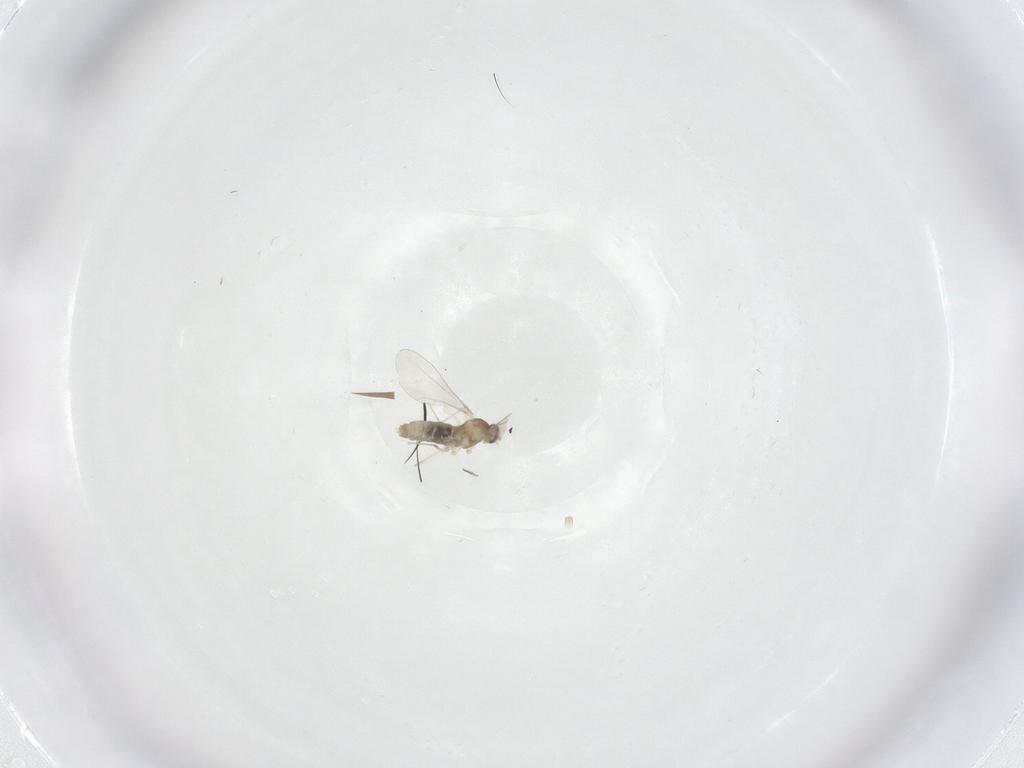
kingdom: Animalia
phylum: Arthropoda
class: Insecta
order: Diptera
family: Cecidomyiidae
